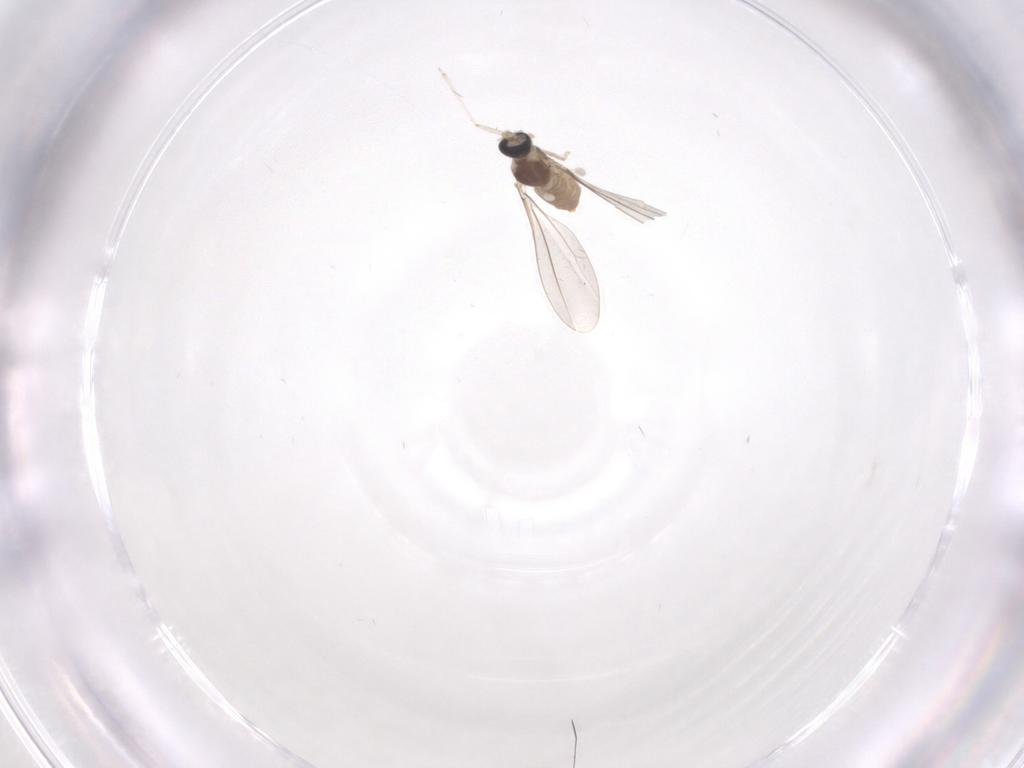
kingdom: Animalia
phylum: Arthropoda
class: Insecta
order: Diptera
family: Cecidomyiidae
